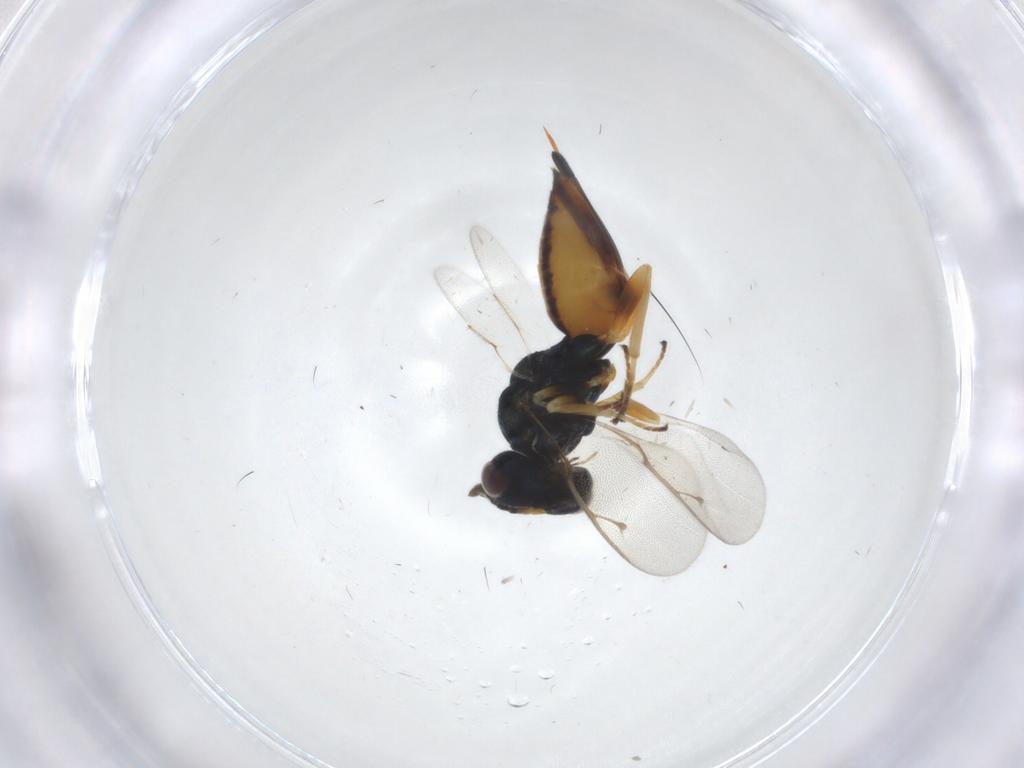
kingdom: Animalia
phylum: Arthropoda
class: Insecta
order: Hymenoptera
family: Pteromalidae
